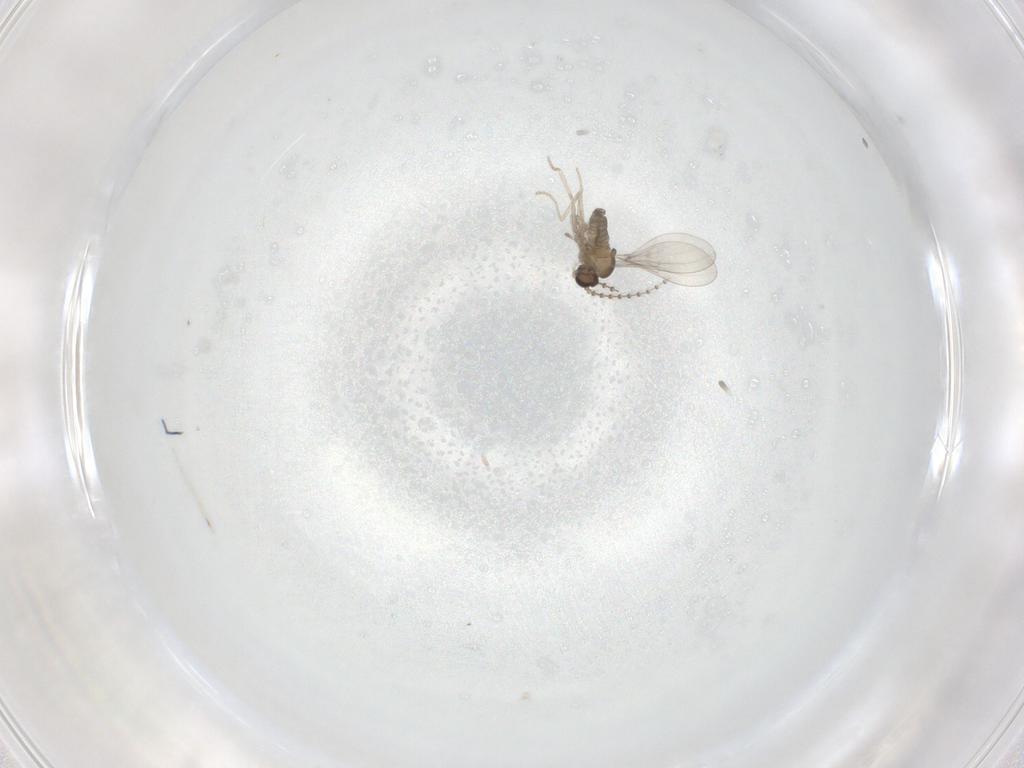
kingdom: Animalia
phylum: Arthropoda
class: Insecta
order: Diptera
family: Cecidomyiidae
